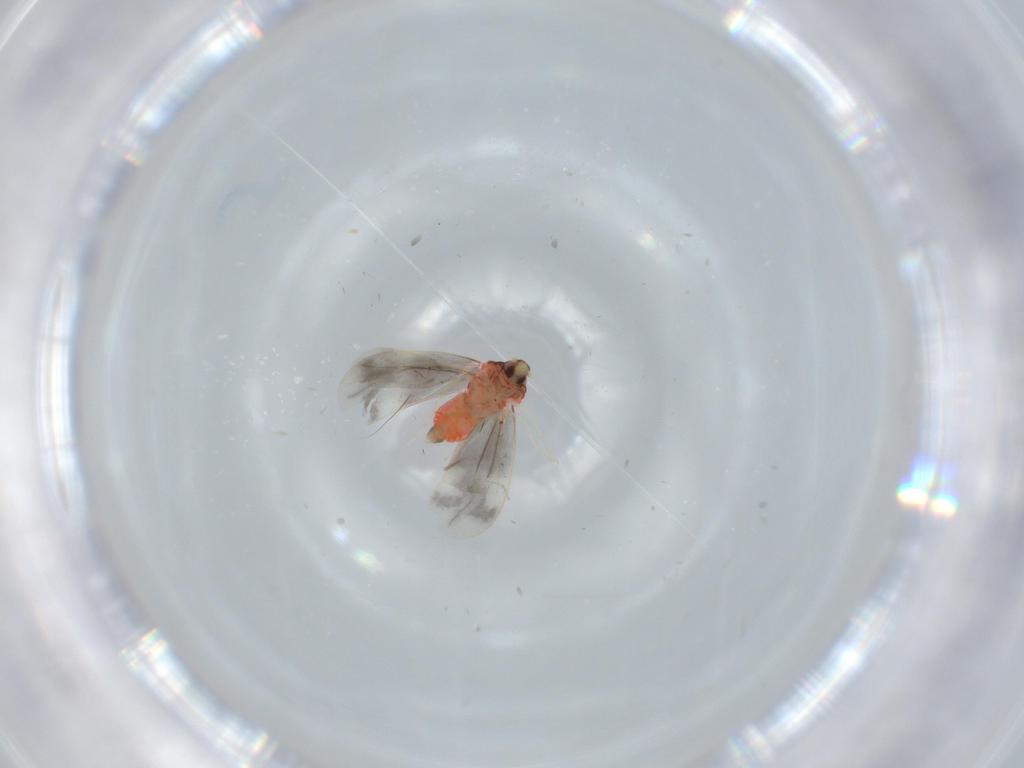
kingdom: Animalia
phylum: Arthropoda
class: Insecta
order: Hemiptera
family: Aleyrodidae
